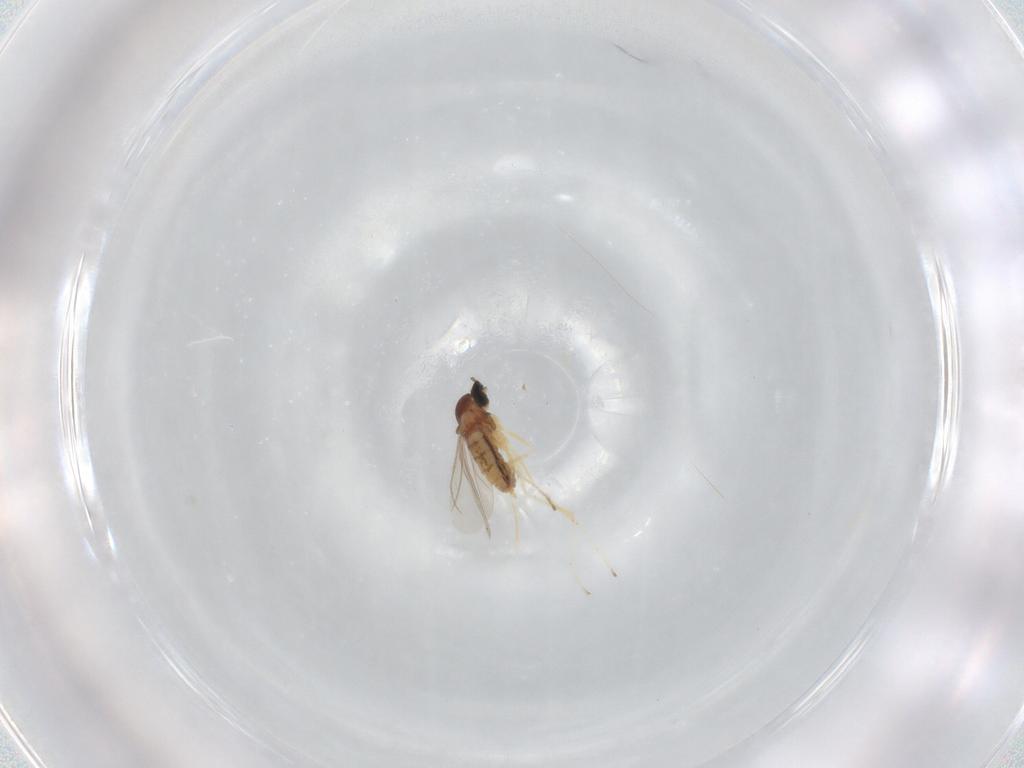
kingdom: Animalia
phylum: Arthropoda
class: Insecta
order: Diptera
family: Cecidomyiidae
